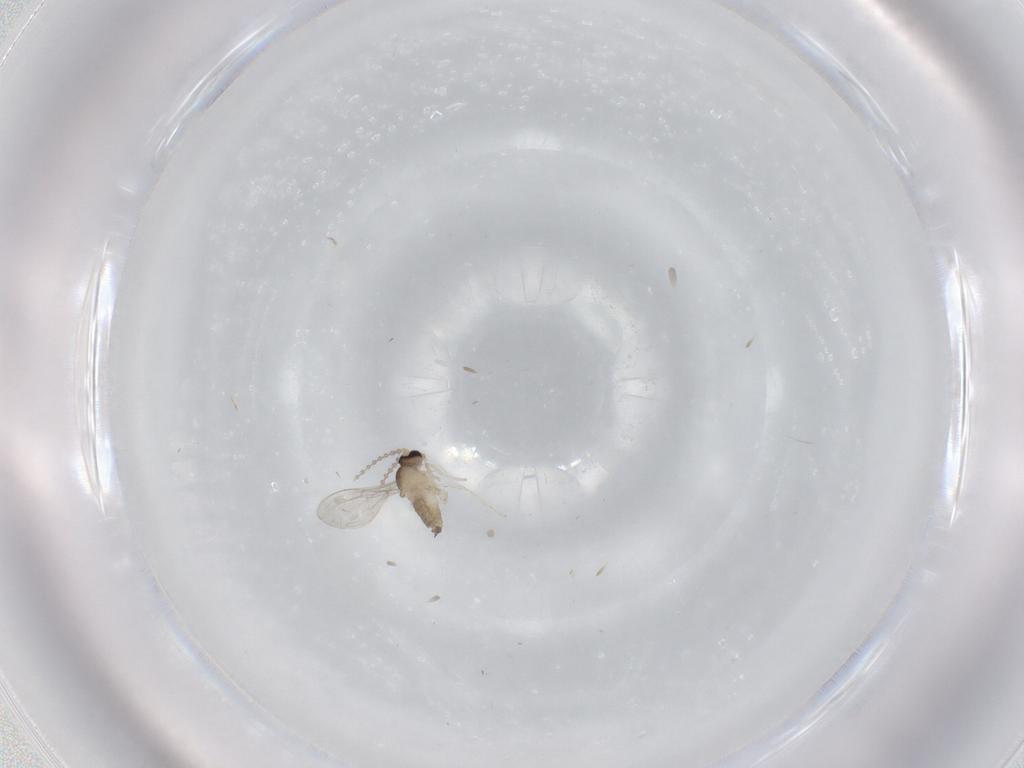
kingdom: Animalia
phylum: Arthropoda
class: Insecta
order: Diptera
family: Cecidomyiidae
